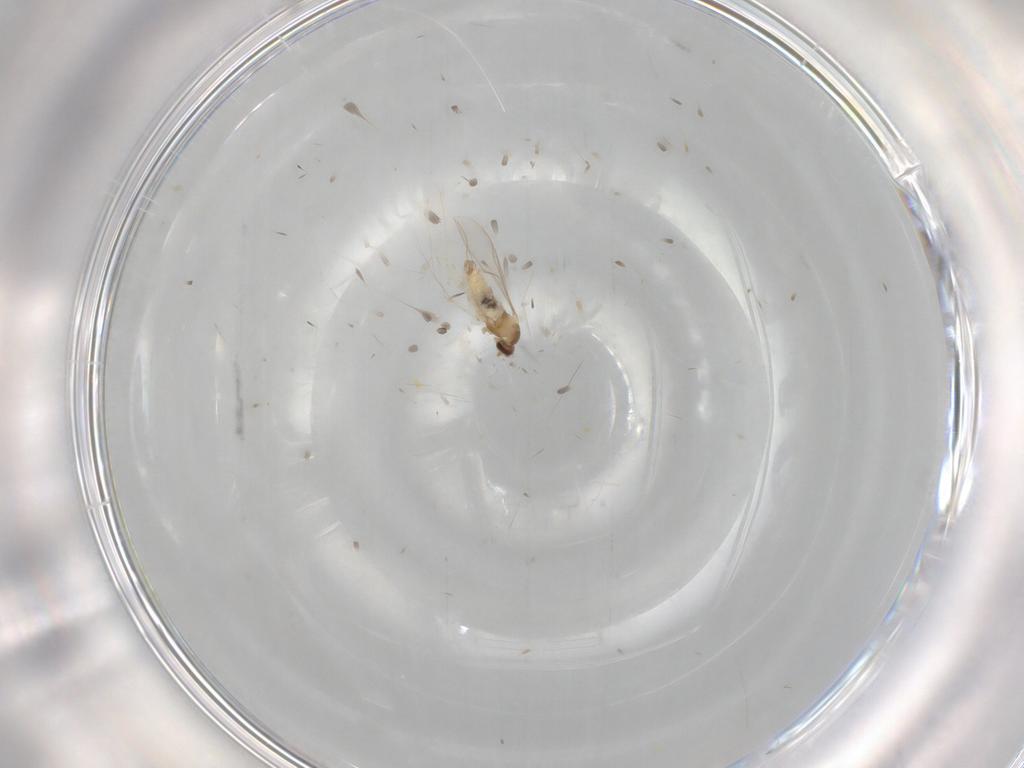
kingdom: Animalia
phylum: Arthropoda
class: Insecta
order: Diptera
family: Cecidomyiidae
